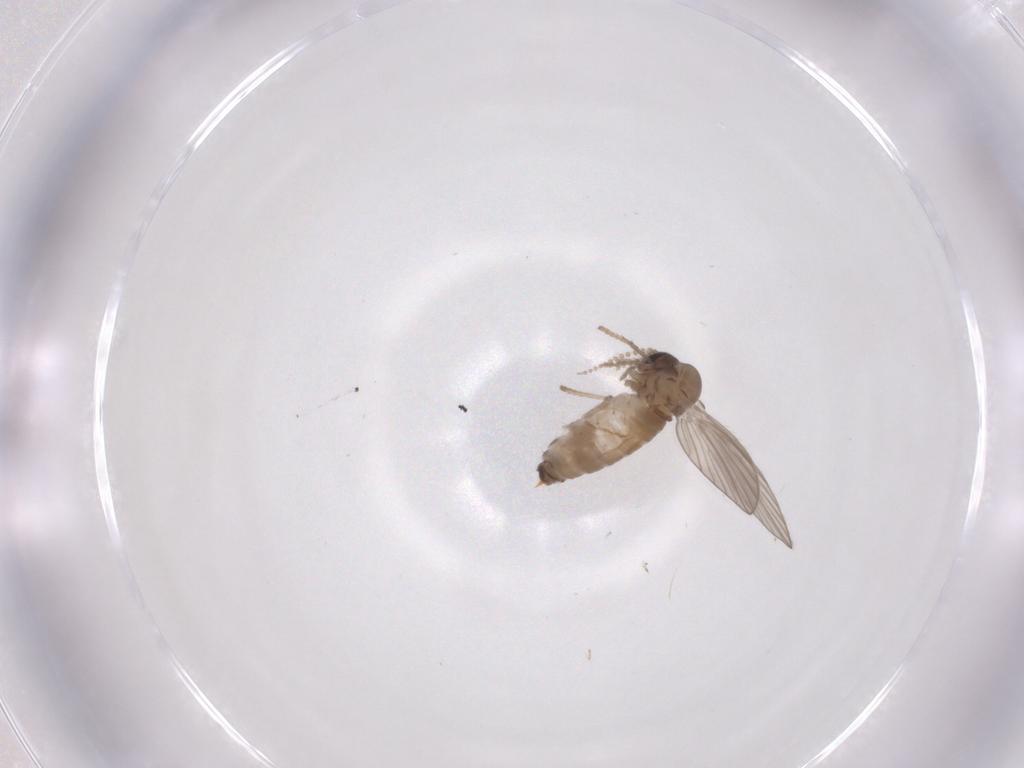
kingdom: Animalia
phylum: Arthropoda
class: Insecta
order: Diptera
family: Psychodidae
